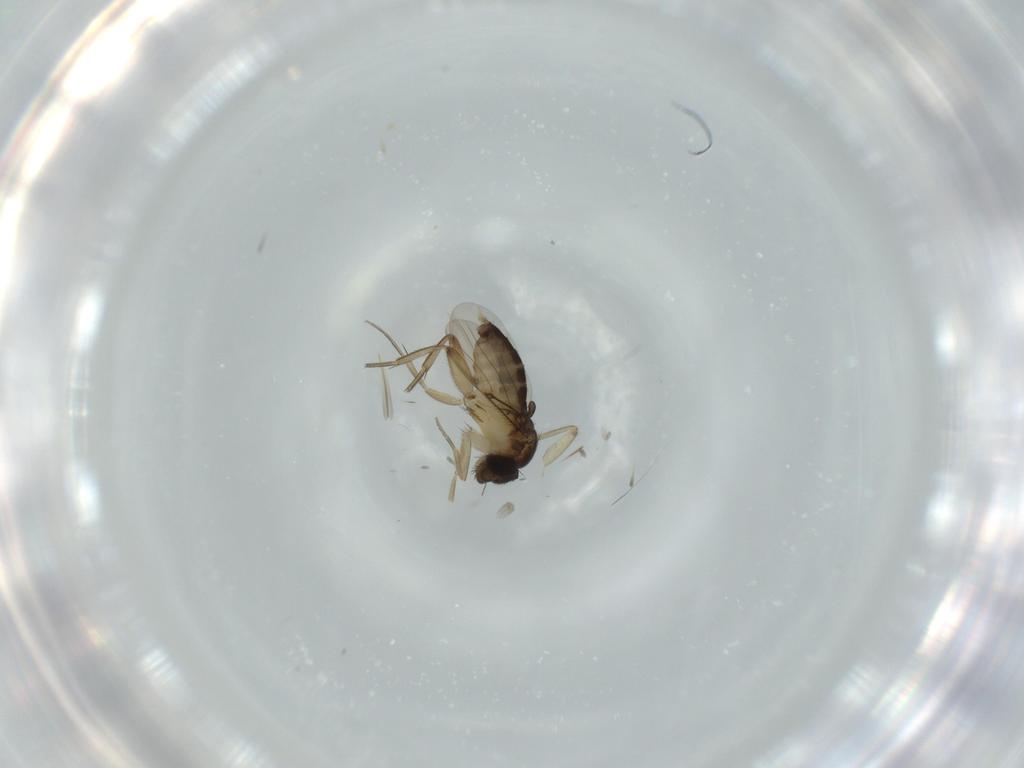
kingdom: Animalia
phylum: Arthropoda
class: Insecta
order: Diptera
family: Phoridae
